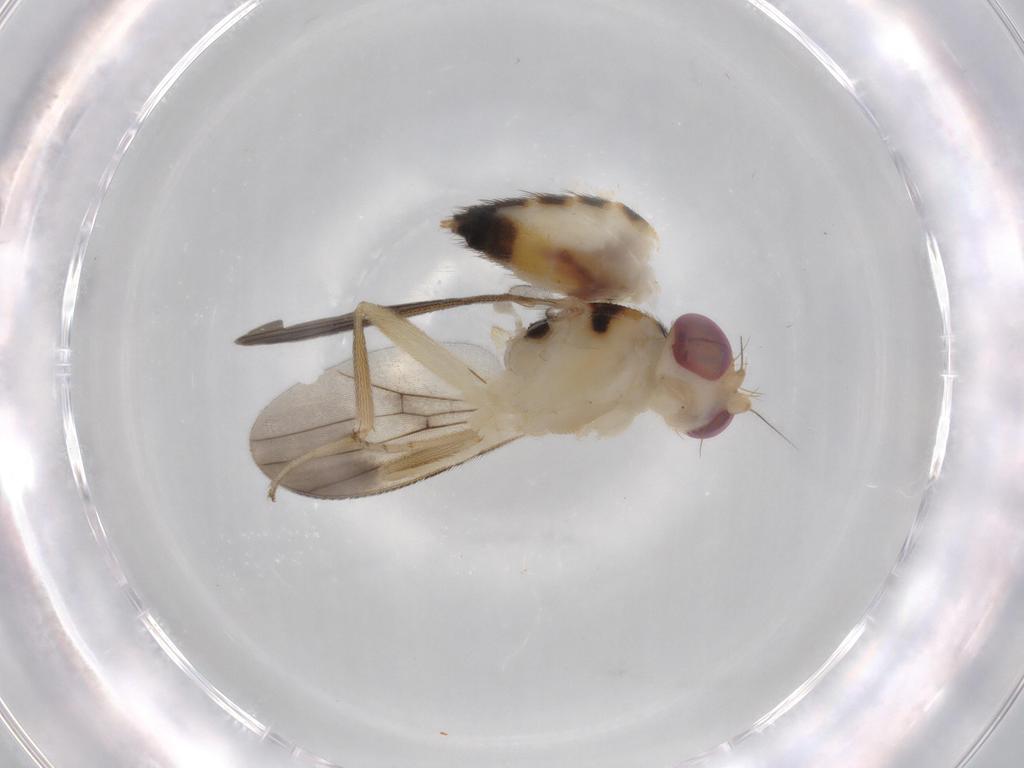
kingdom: Animalia
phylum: Arthropoda
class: Insecta
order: Diptera
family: Clusiidae
